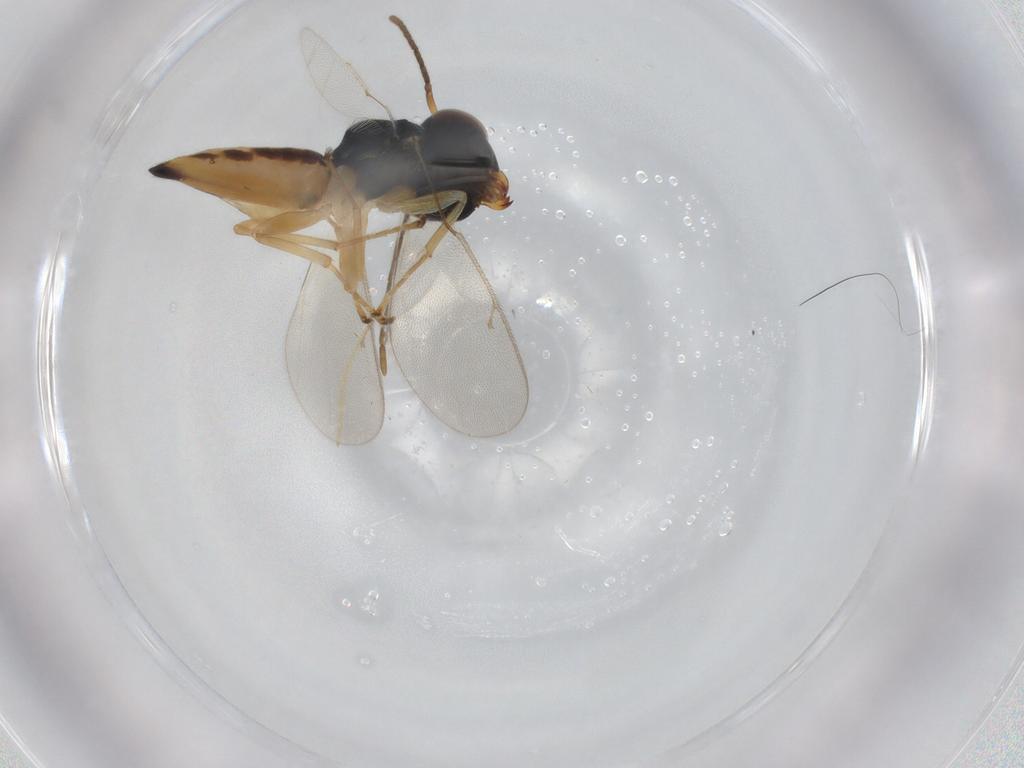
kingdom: Animalia
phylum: Arthropoda
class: Insecta
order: Hymenoptera
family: Pteromalidae
